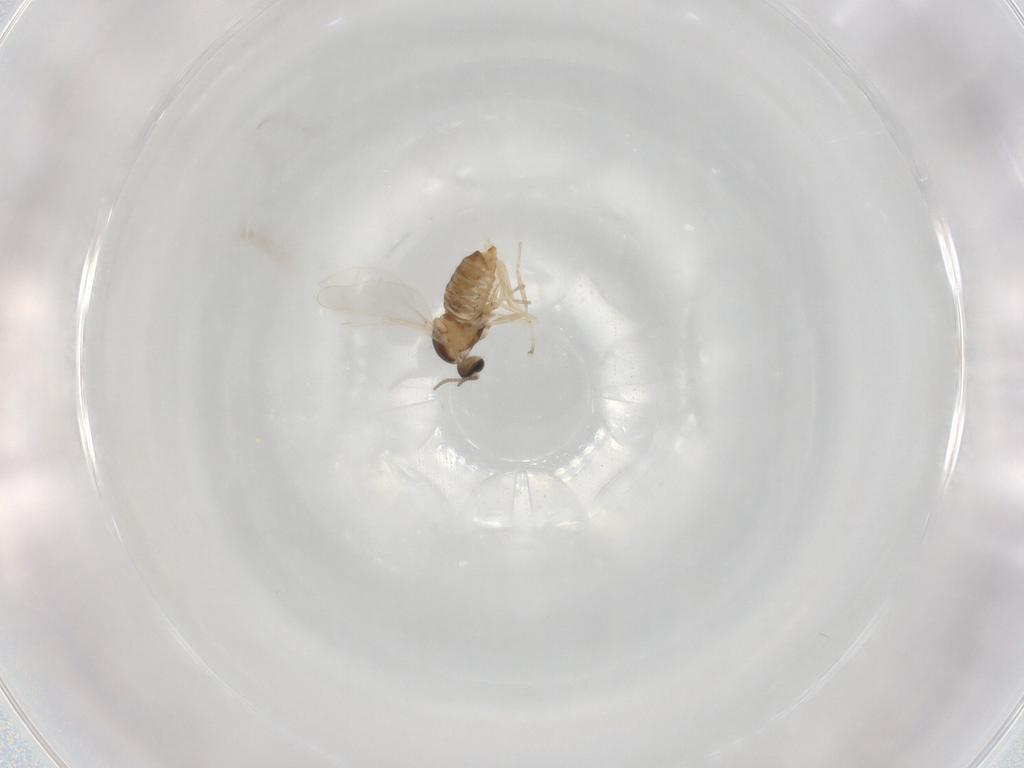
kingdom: Animalia
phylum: Arthropoda
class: Insecta
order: Diptera
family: Cecidomyiidae
